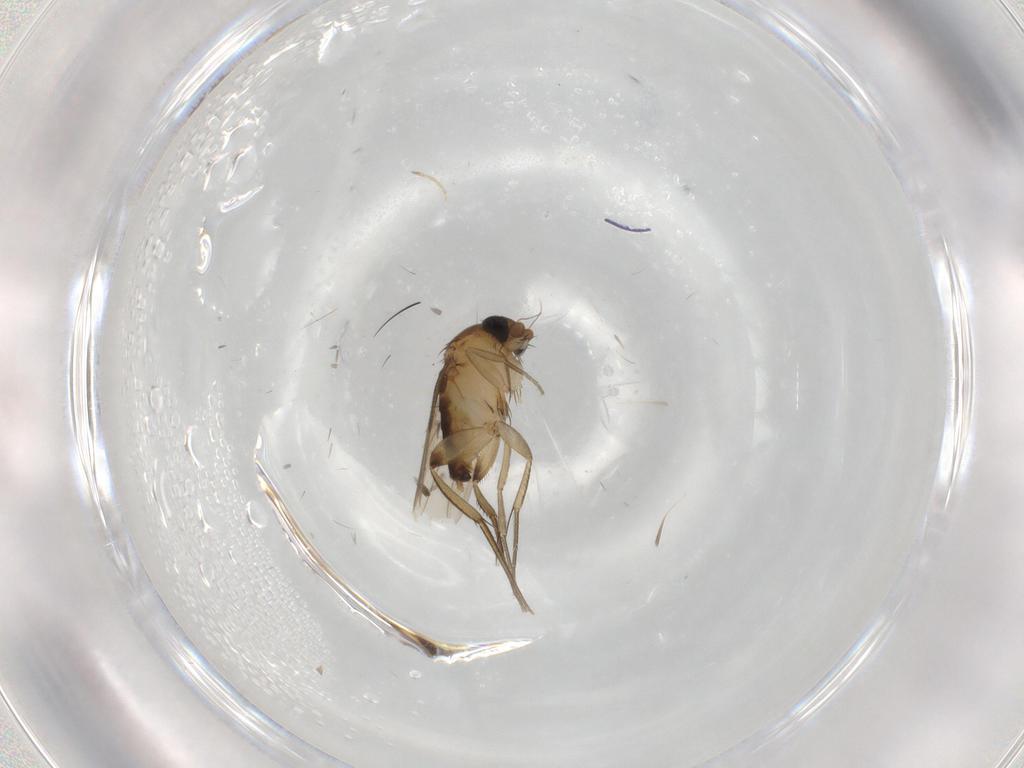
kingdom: Animalia
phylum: Arthropoda
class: Insecta
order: Diptera
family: Phoridae
